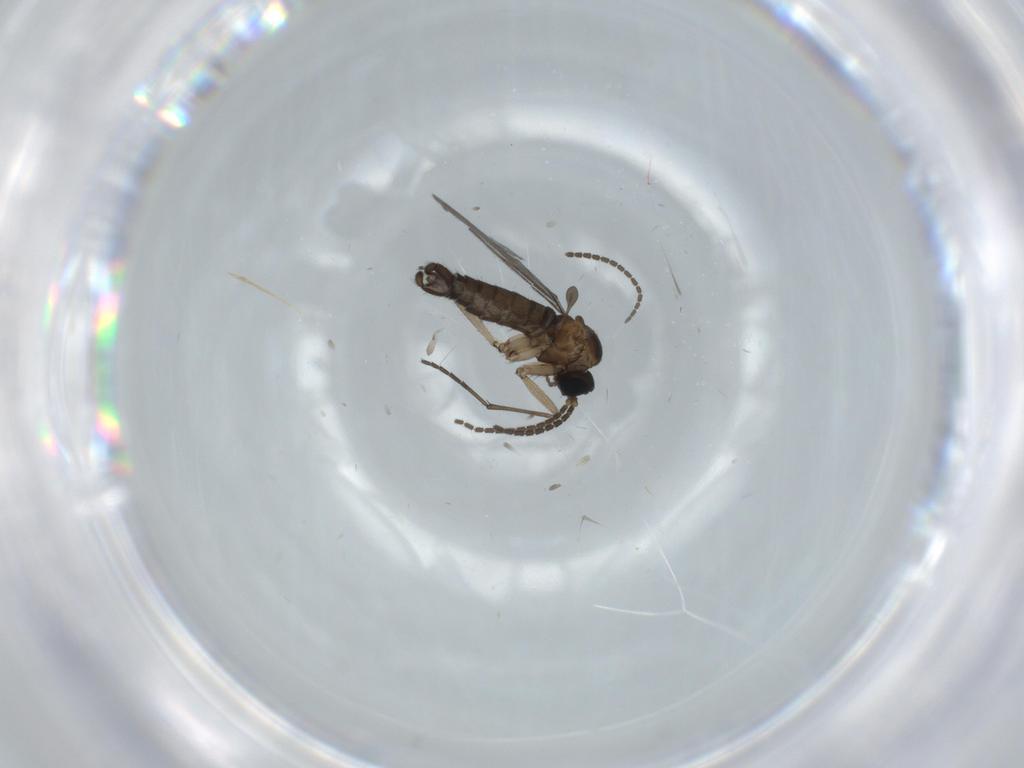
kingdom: Animalia
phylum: Arthropoda
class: Insecta
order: Diptera
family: Sciaridae
